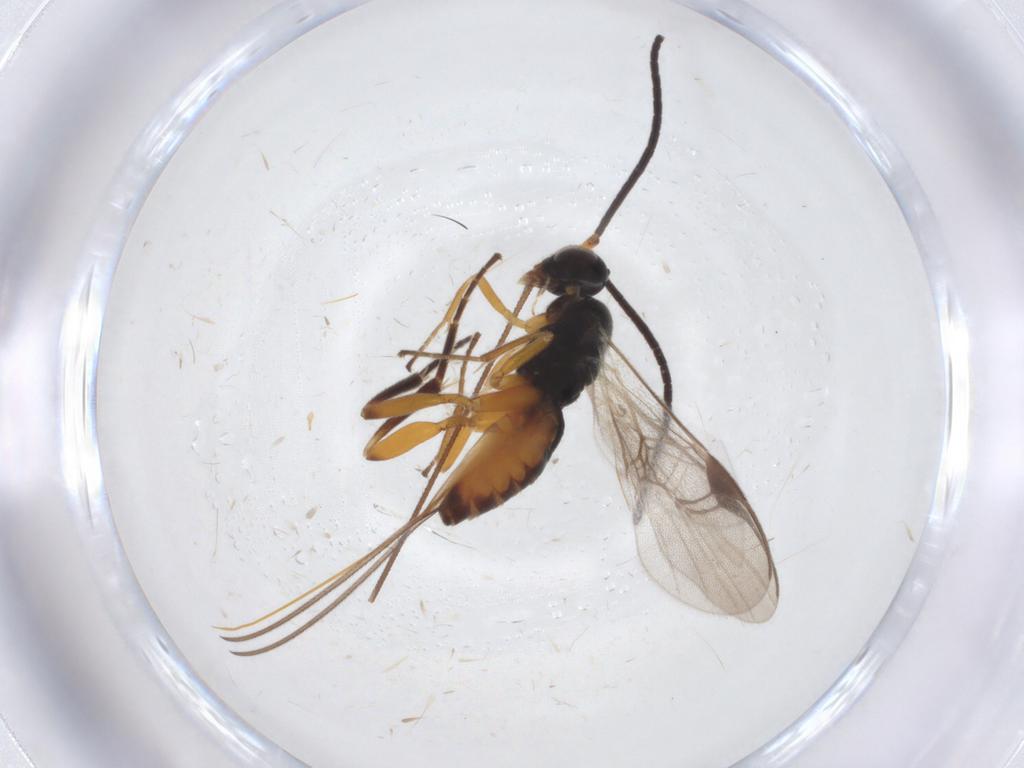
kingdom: Animalia
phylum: Arthropoda
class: Insecta
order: Hymenoptera
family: Braconidae
